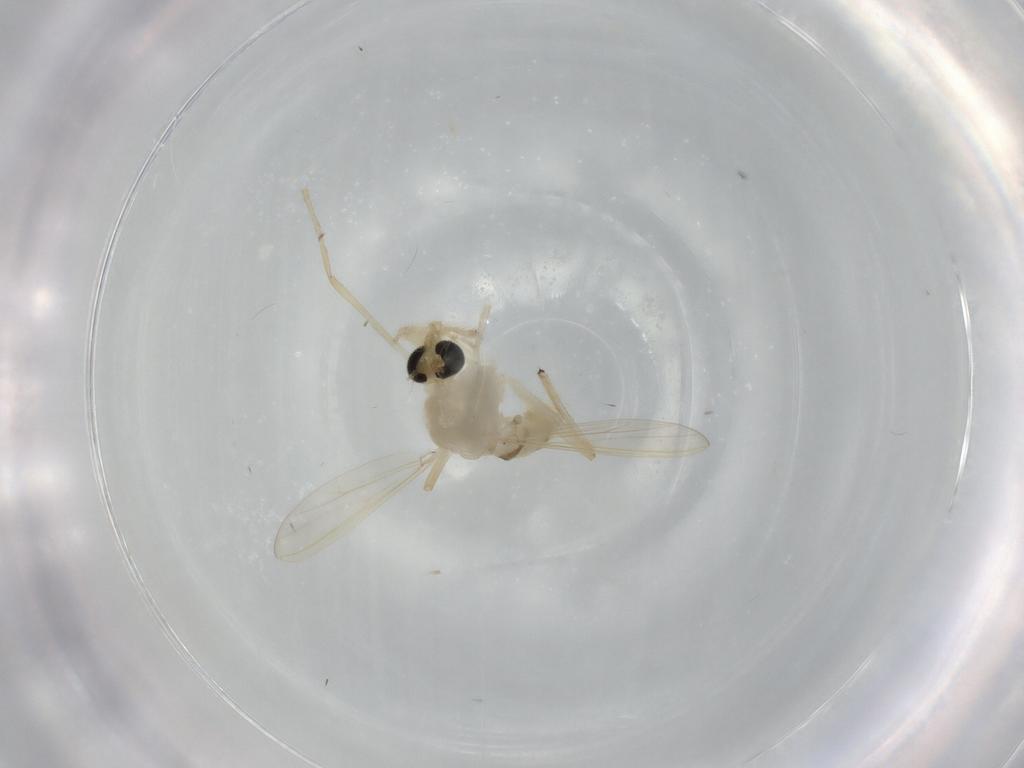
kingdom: Animalia
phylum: Arthropoda
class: Insecta
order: Diptera
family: Chironomidae
